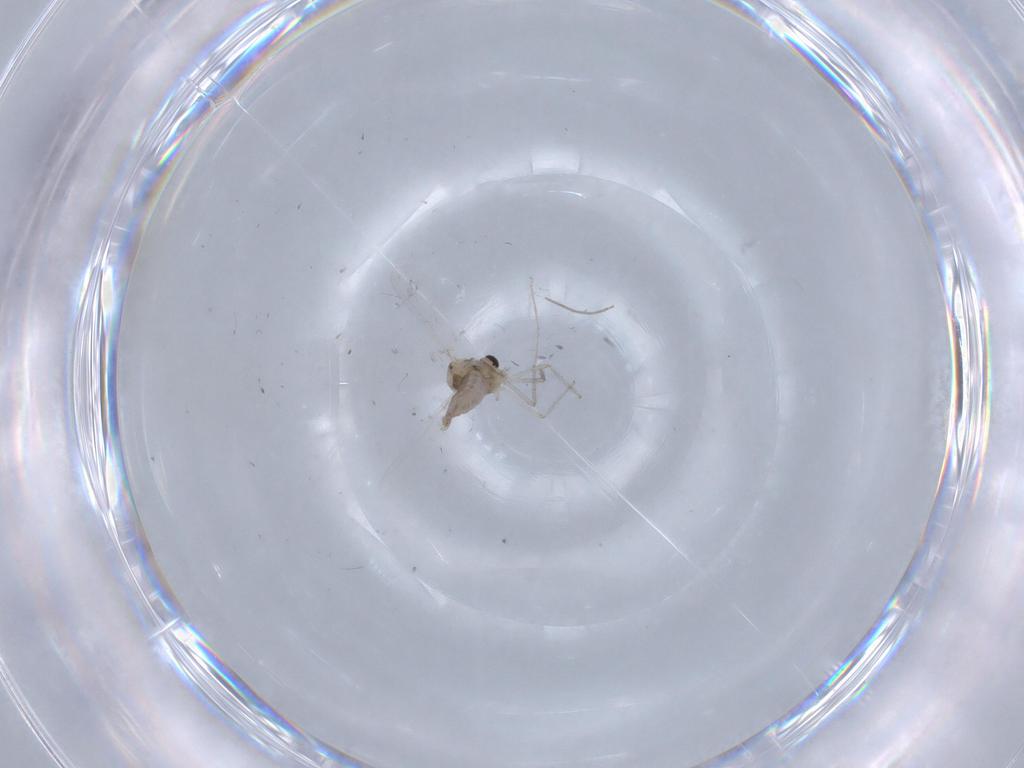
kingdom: Animalia
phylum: Arthropoda
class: Insecta
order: Diptera
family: Chironomidae
